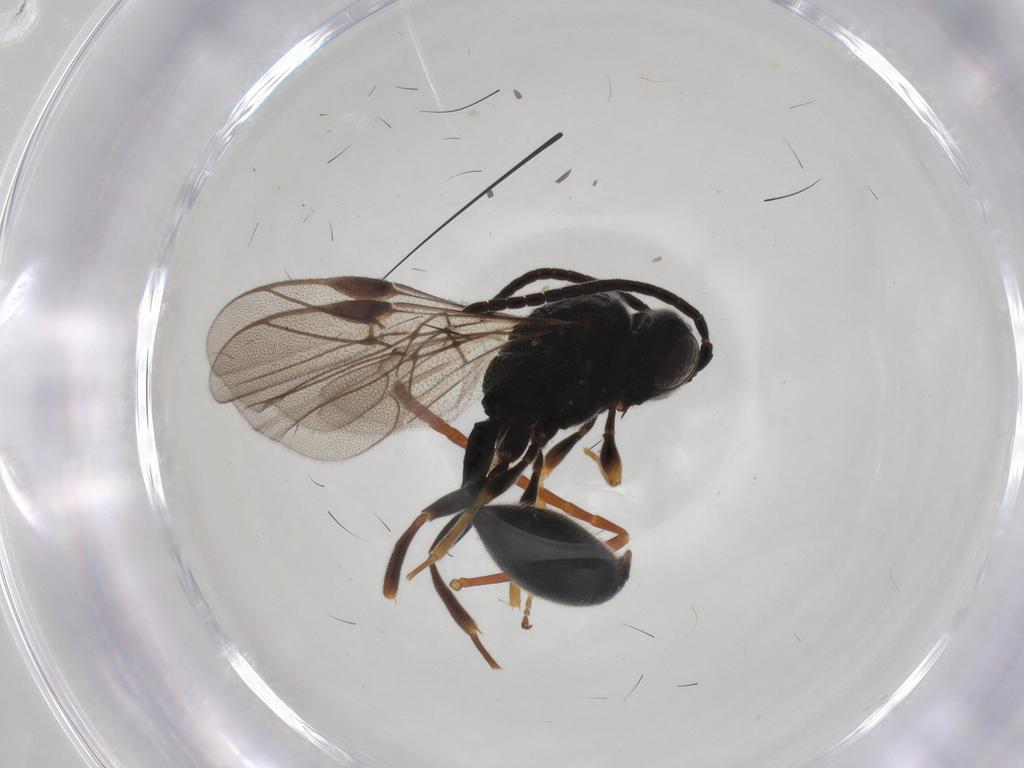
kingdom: Animalia
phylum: Arthropoda
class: Insecta
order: Hymenoptera
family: Formicidae
